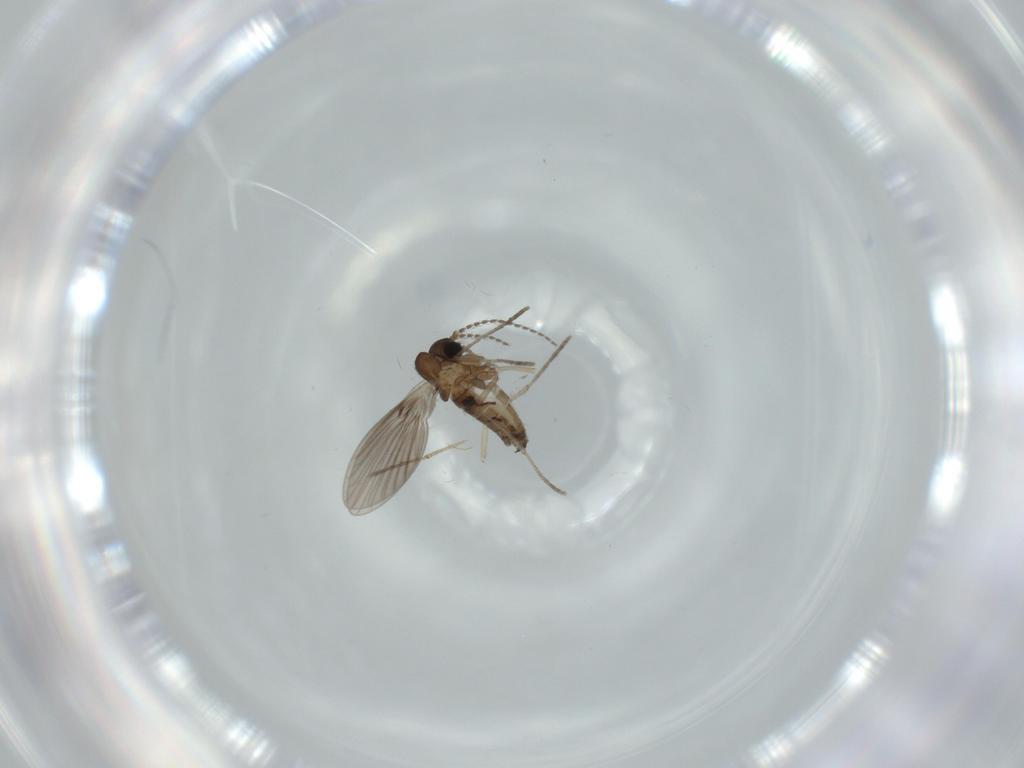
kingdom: Animalia
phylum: Arthropoda
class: Insecta
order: Diptera
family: Psychodidae
